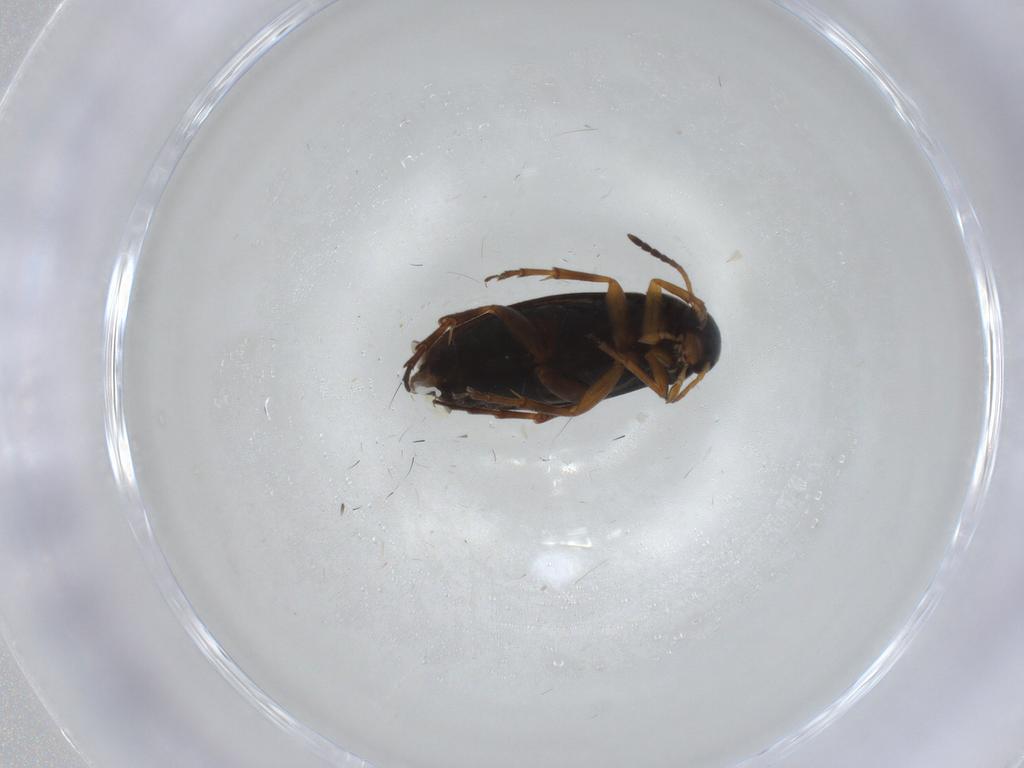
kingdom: Animalia
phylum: Arthropoda
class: Insecta
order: Coleoptera
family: Scraptiidae
